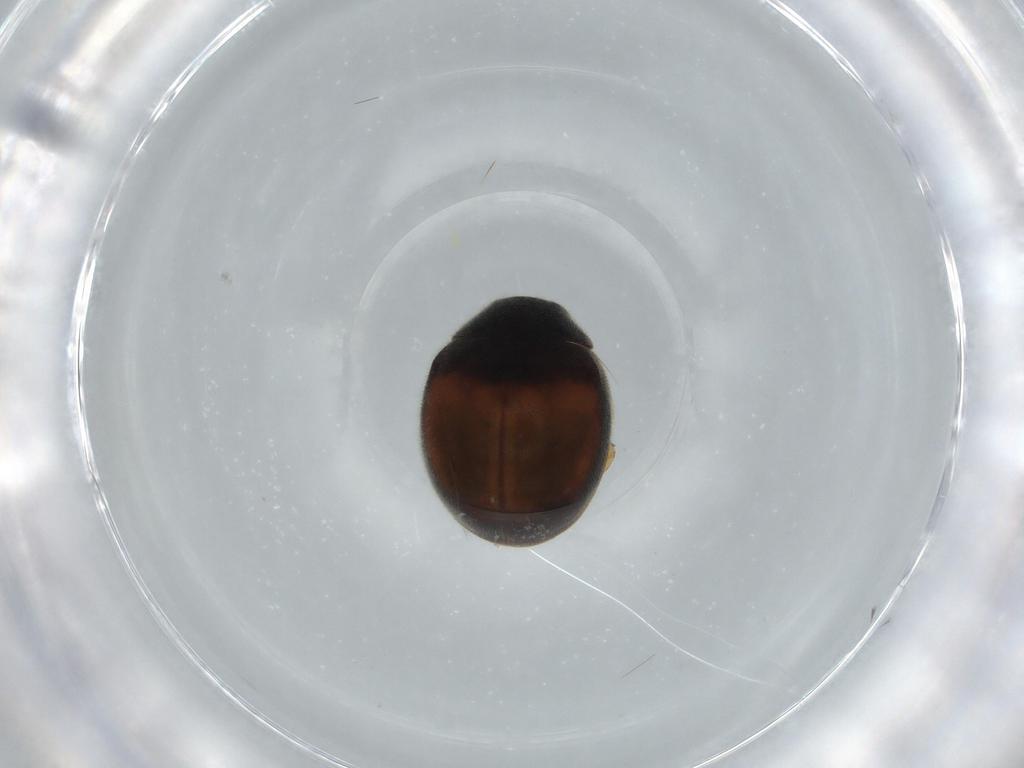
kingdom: Animalia
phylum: Arthropoda
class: Insecta
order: Coleoptera
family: Coccinellidae
